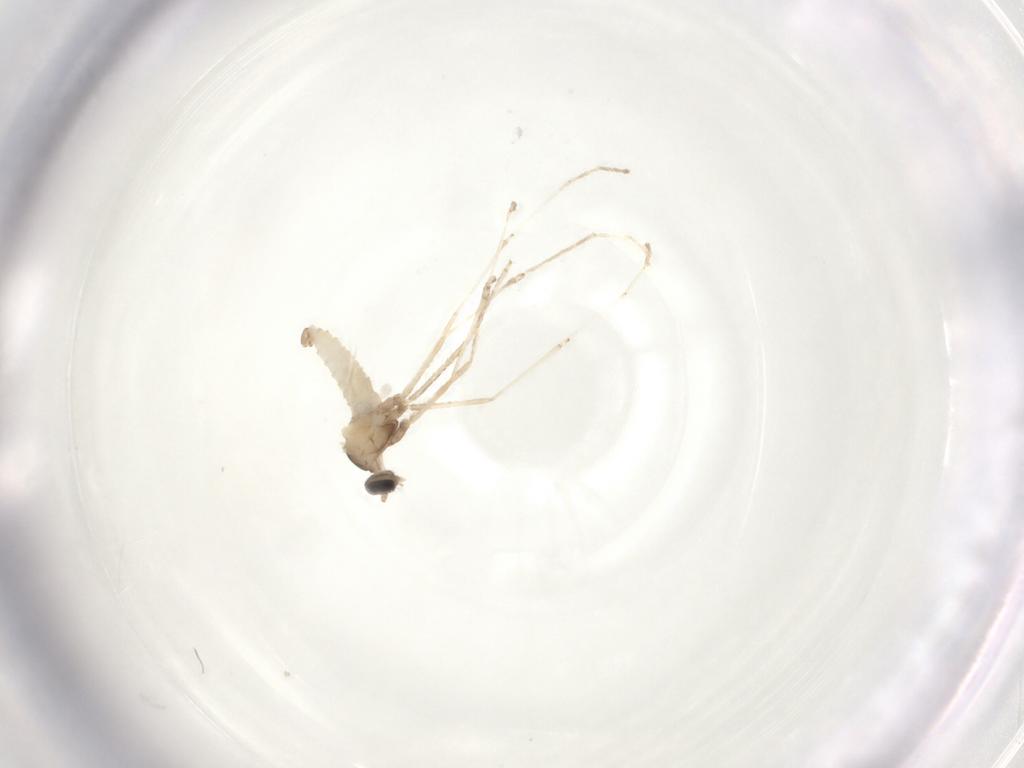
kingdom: Animalia
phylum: Arthropoda
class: Insecta
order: Diptera
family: Cecidomyiidae
